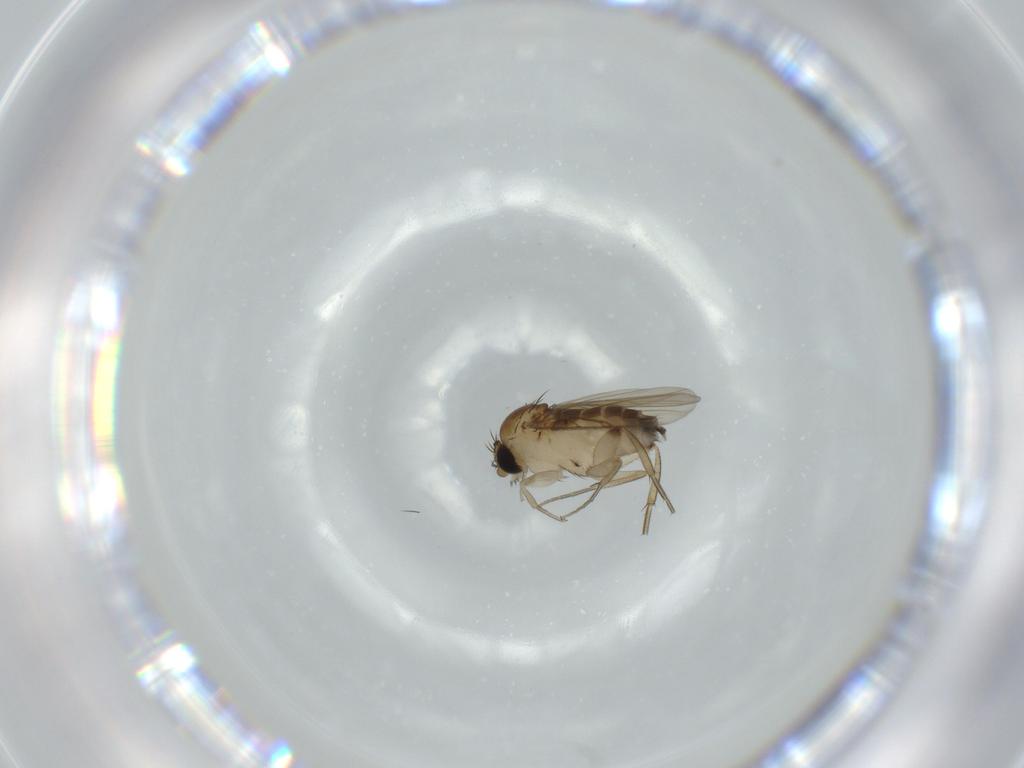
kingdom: Animalia
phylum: Arthropoda
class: Insecta
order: Diptera
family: Phoridae
